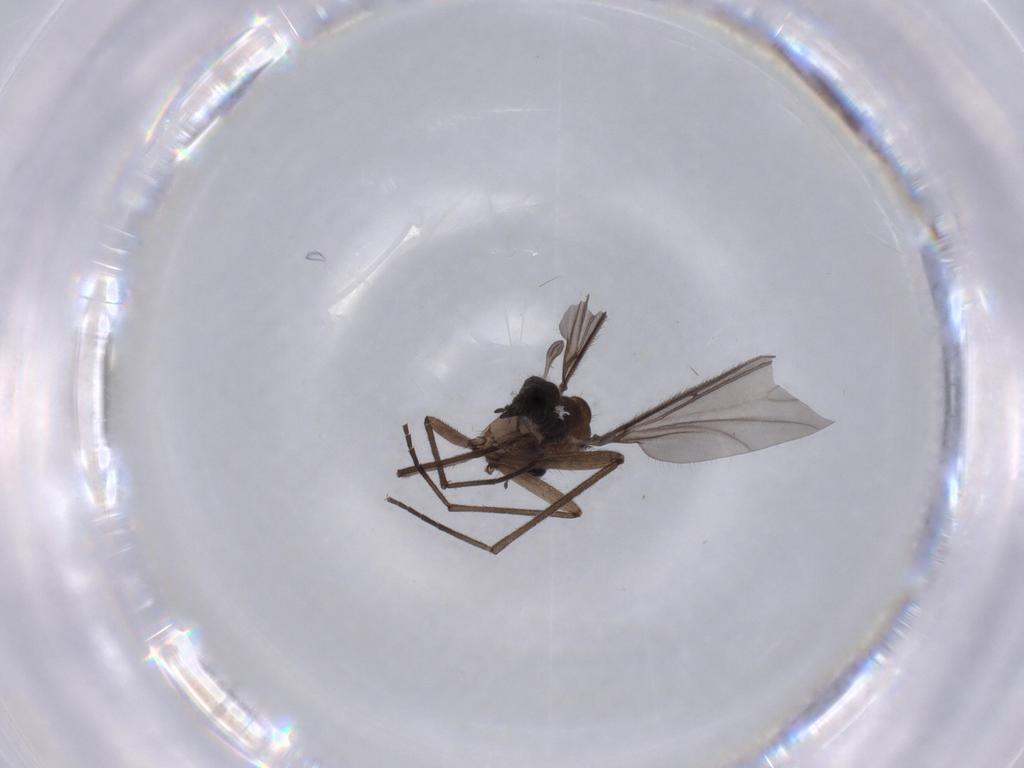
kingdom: Animalia
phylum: Arthropoda
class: Insecta
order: Diptera
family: Sciaridae
